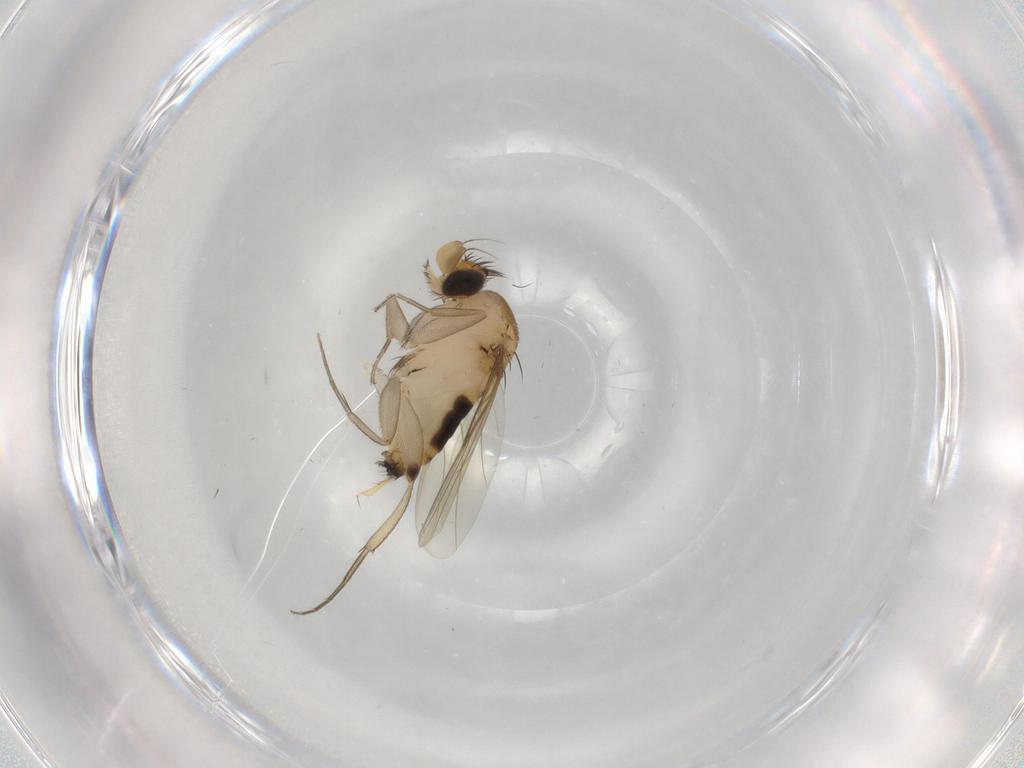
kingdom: Animalia
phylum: Arthropoda
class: Insecta
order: Diptera
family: Phoridae
